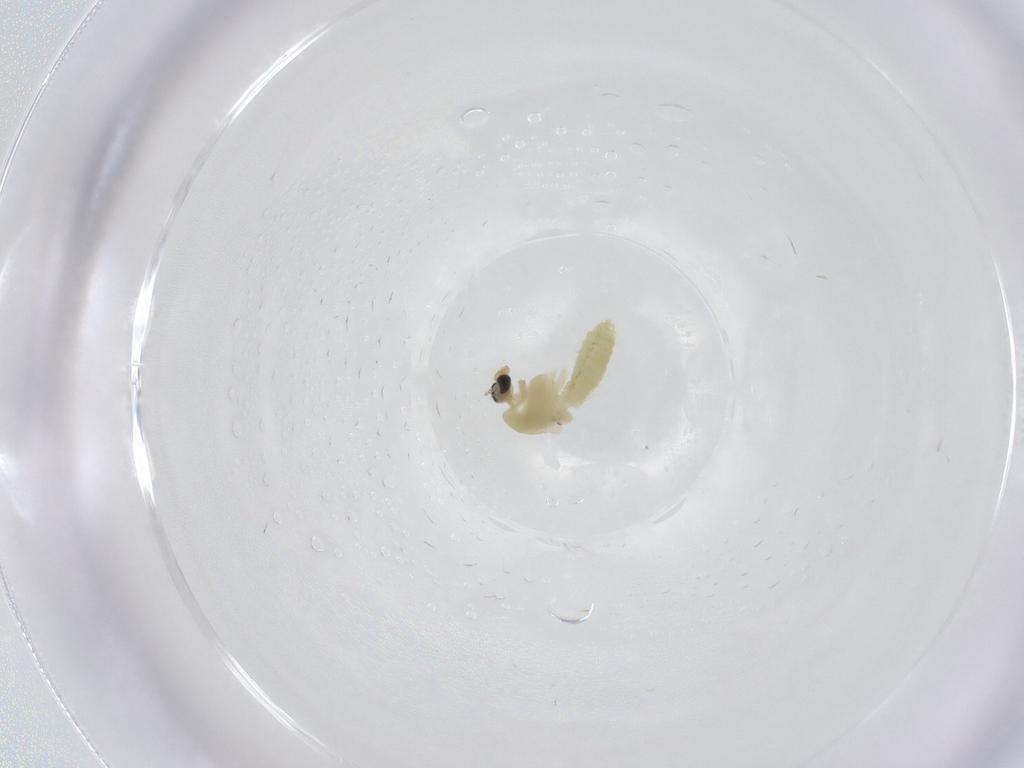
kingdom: Animalia
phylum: Arthropoda
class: Insecta
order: Diptera
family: Chironomidae
